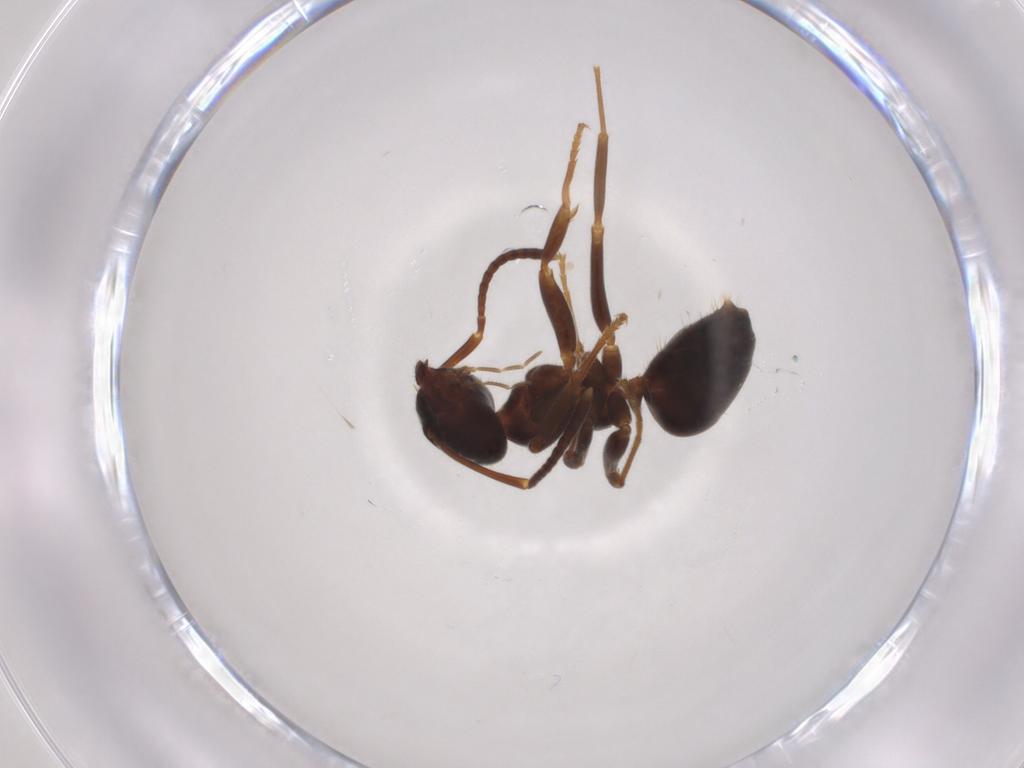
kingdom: Animalia
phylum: Arthropoda
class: Insecta
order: Hymenoptera
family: Formicidae
